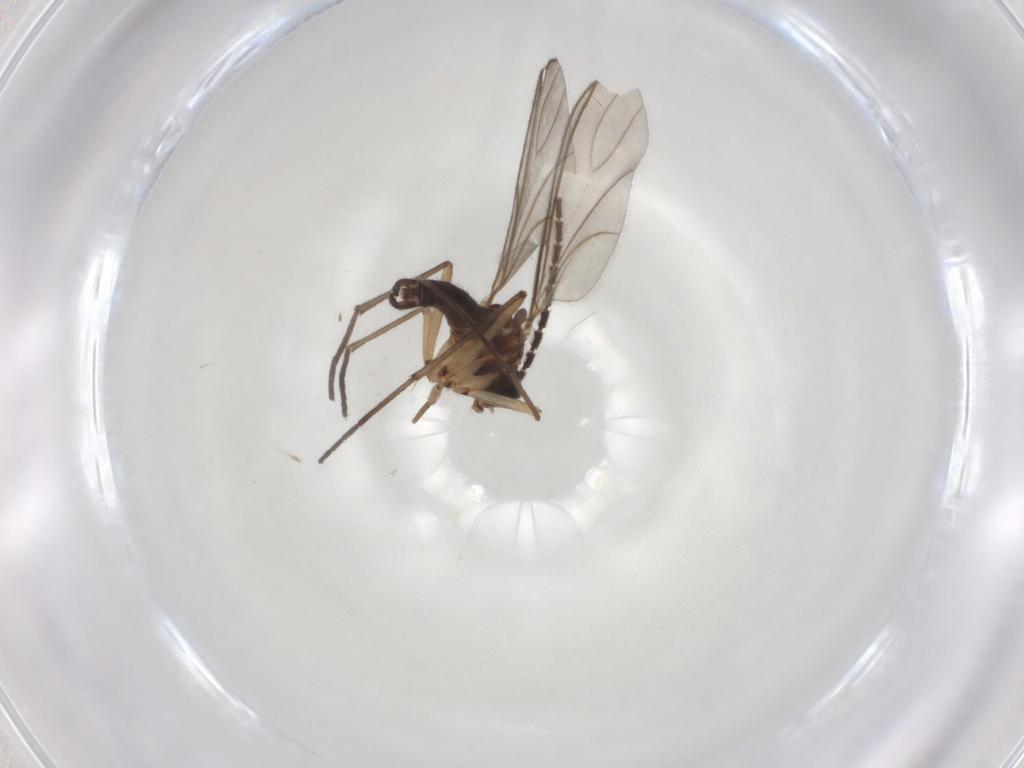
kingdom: Animalia
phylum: Arthropoda
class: Insecta
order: Diptera
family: Sciaridae
